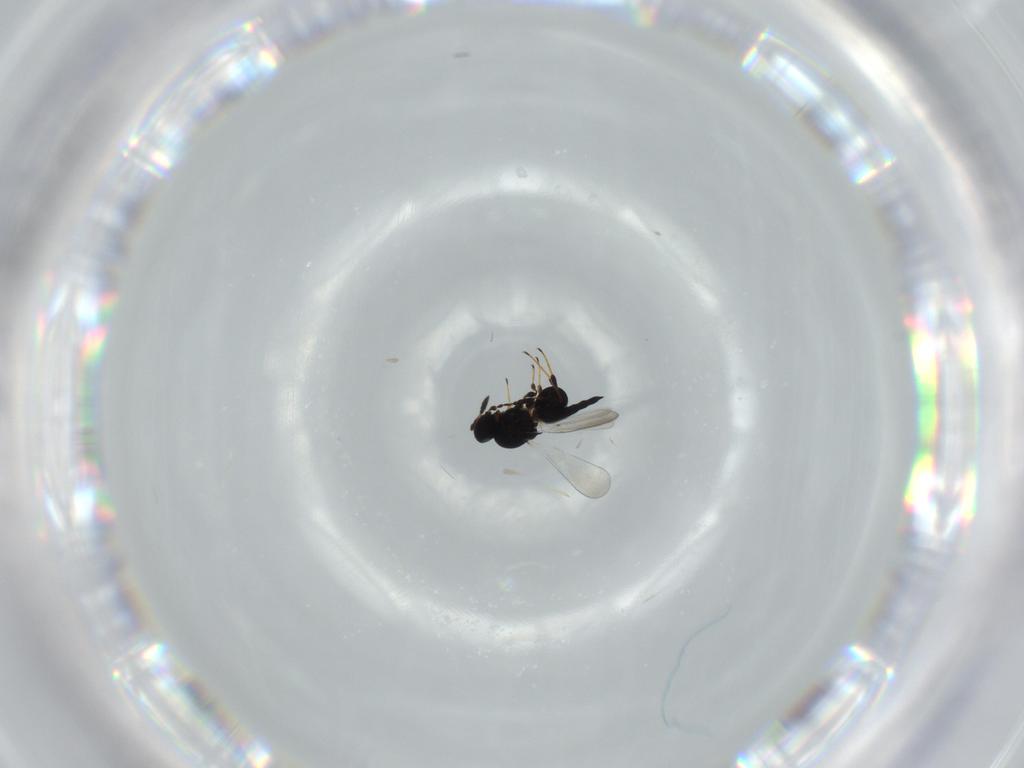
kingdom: Animalia
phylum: Arthropoda
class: Insecta
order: Hymenoptera
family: Platygastridae
